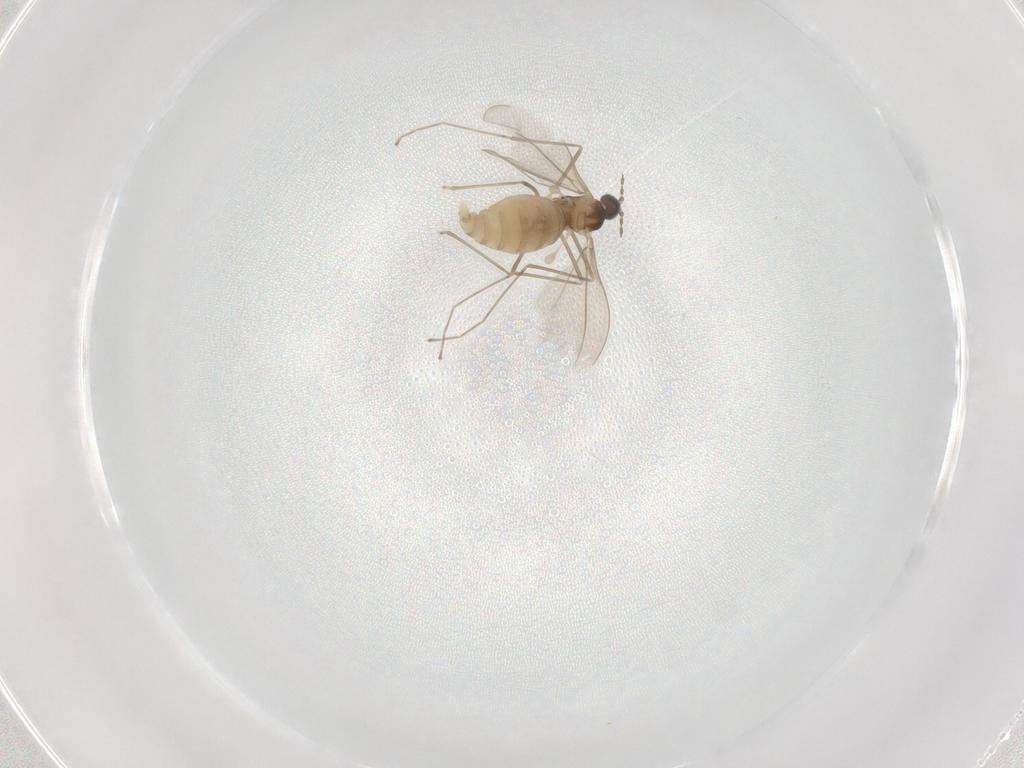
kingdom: Animalia
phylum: Arthropoda
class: Insecta
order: Diptera
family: Cecidomyiidae
